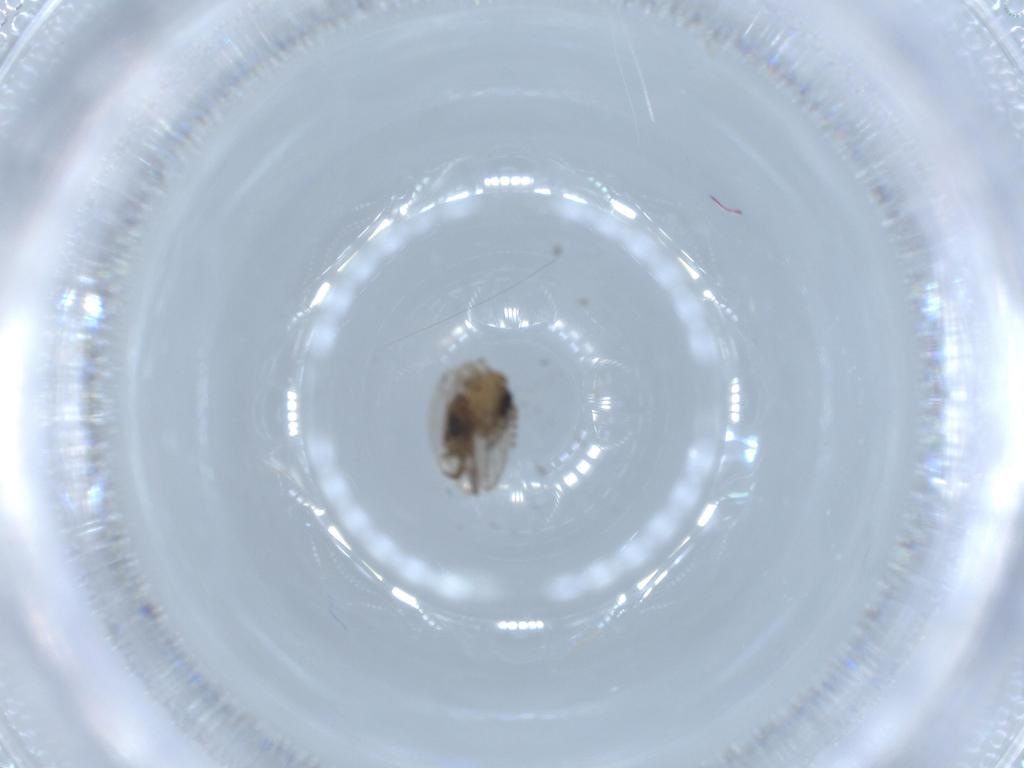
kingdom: Animalia
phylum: Arthropoda
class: Insecta
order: Diptera
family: Psychodidae
